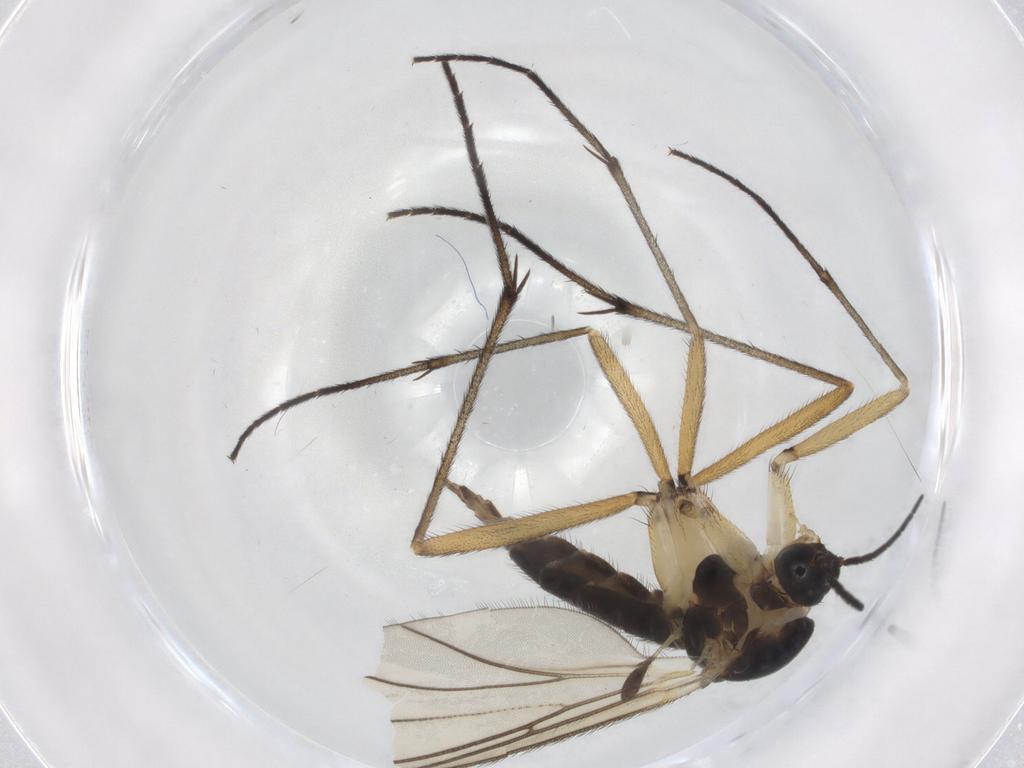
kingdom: Animalia
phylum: Arthropoda
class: Insecta
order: Diptera
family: Sciaridae
